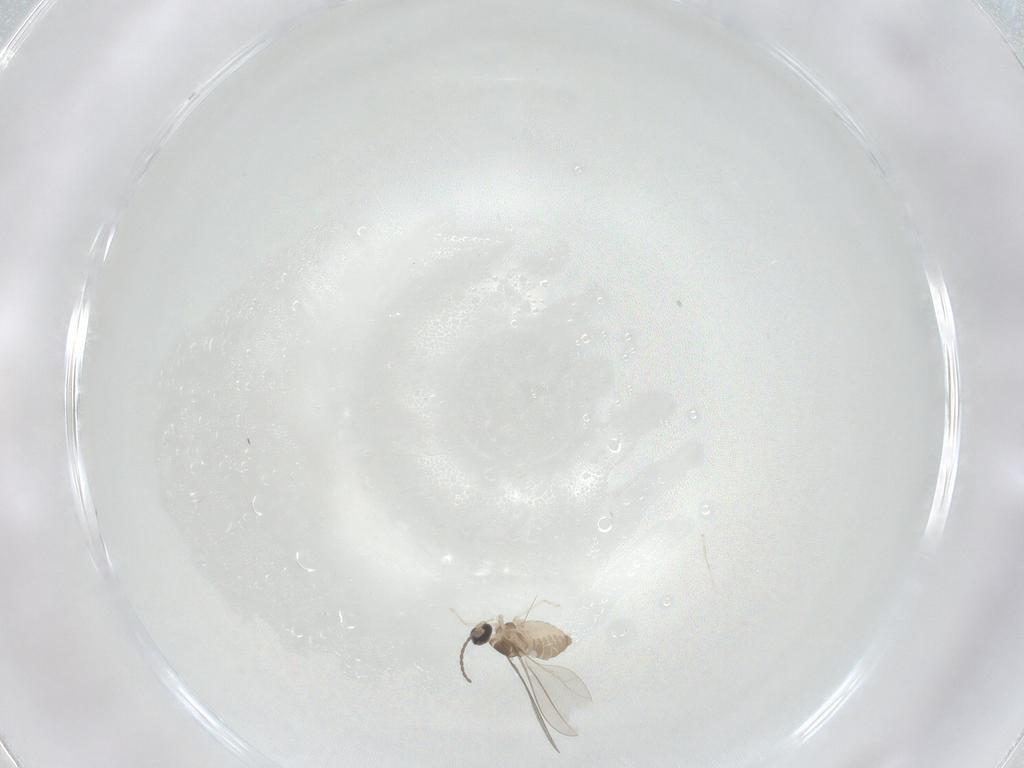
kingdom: Animalia
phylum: Arthropoda
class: Insecta
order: Diptera
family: Cecidomyiidae
